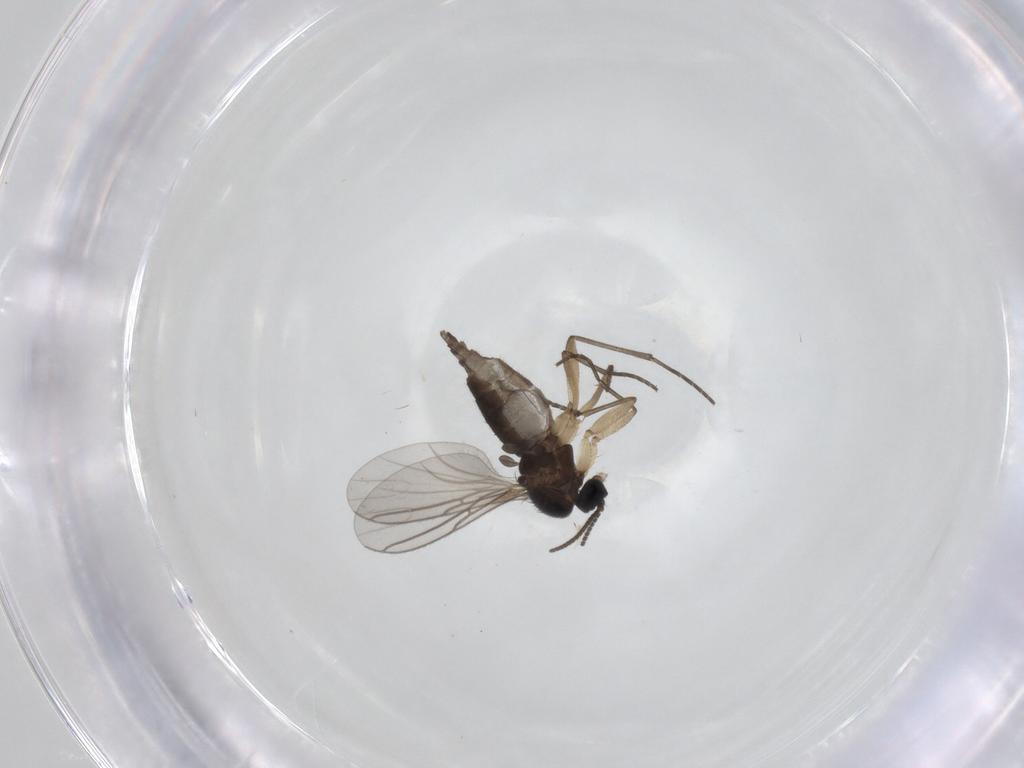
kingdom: Animalia
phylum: Arthropoda
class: Insecta
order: Diptera
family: Sciaridae
